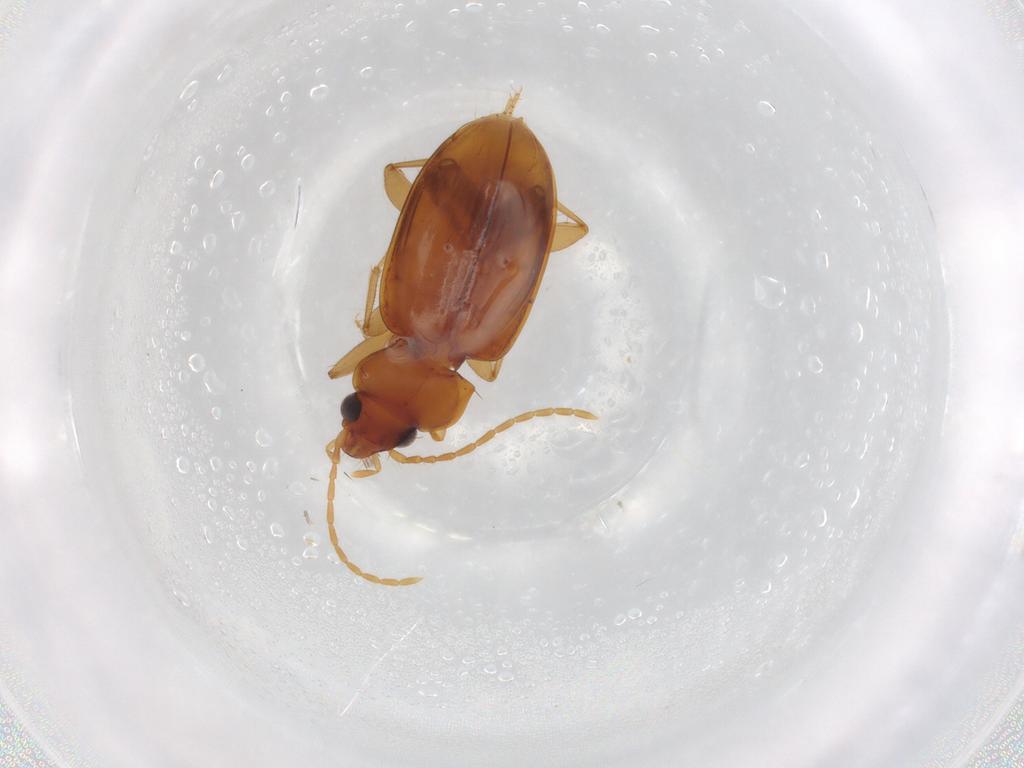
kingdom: Animalia
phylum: Arthropoda
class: Insecta
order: Coleoptera
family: Carabidae
